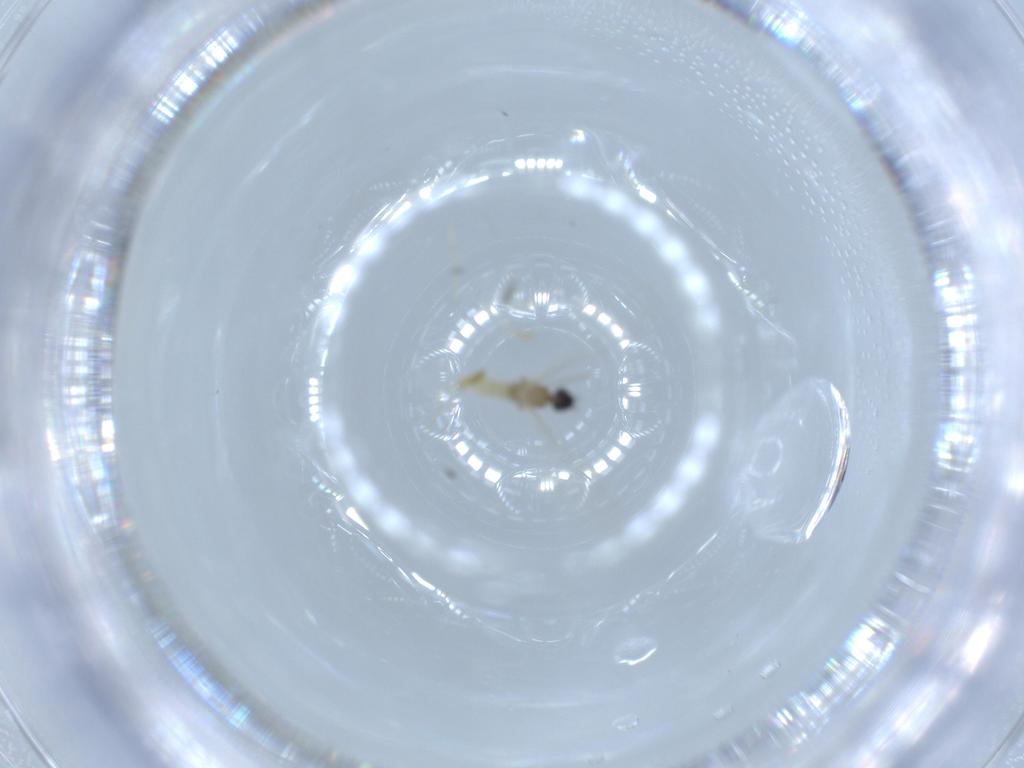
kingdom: Animalia
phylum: Arthropoda
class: Insecta
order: Diptera
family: Cecidomyiidae
